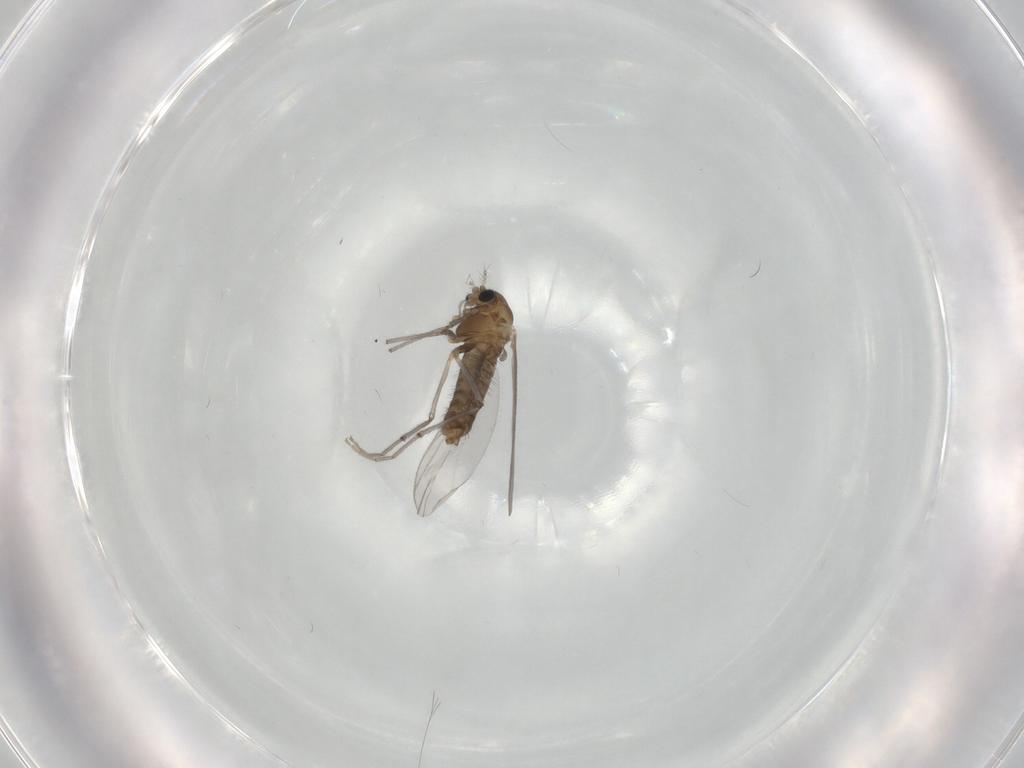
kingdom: Animalia
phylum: Arthropoda
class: Insecta
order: Diptera
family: Chironomidae
